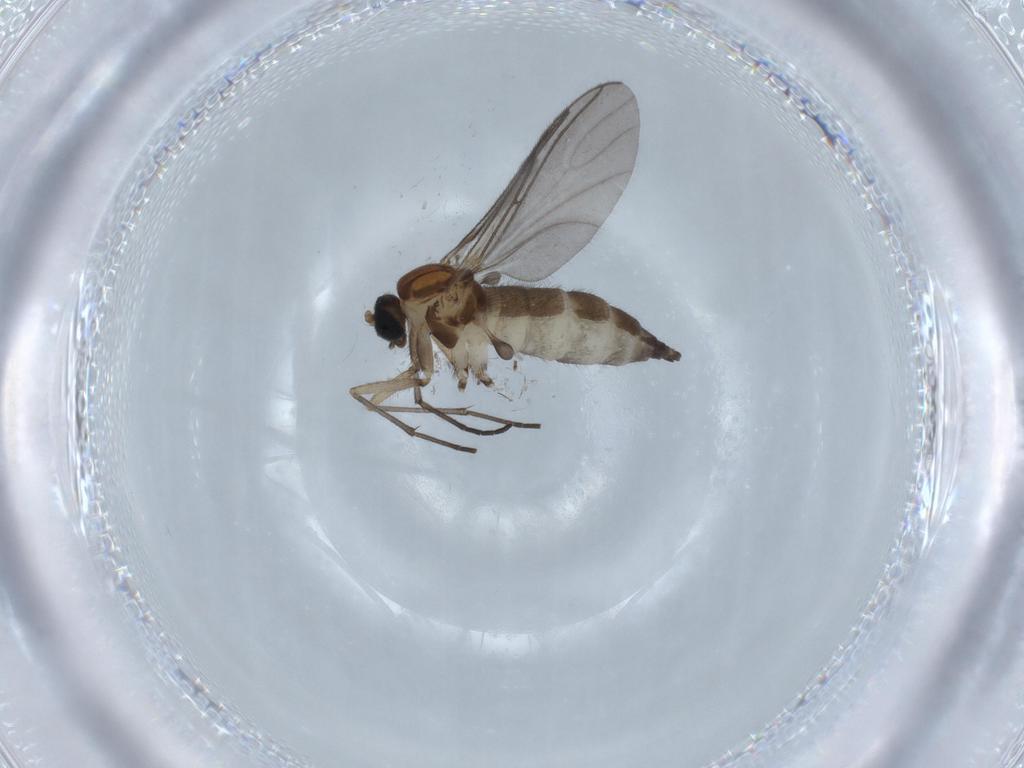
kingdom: Animalia
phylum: Arthropoda
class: Insecta
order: Diptera
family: Sciaridae
